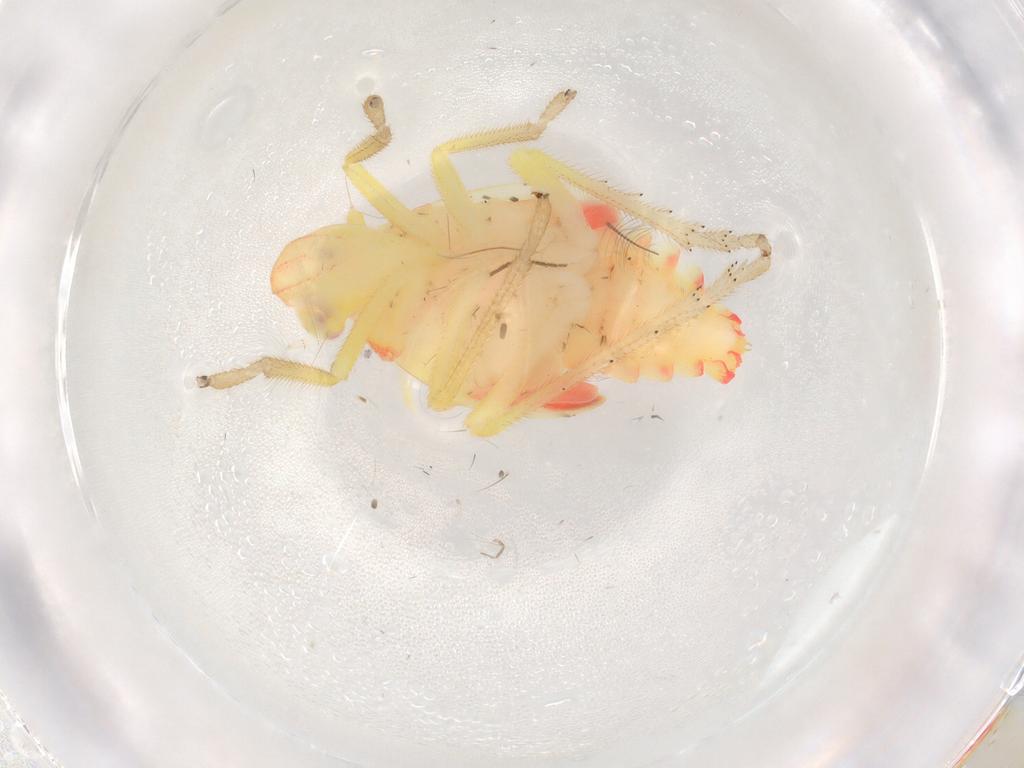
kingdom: Animalia
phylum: Arthropoda
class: Insecta
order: Hemiptera
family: Tropiduchidae
